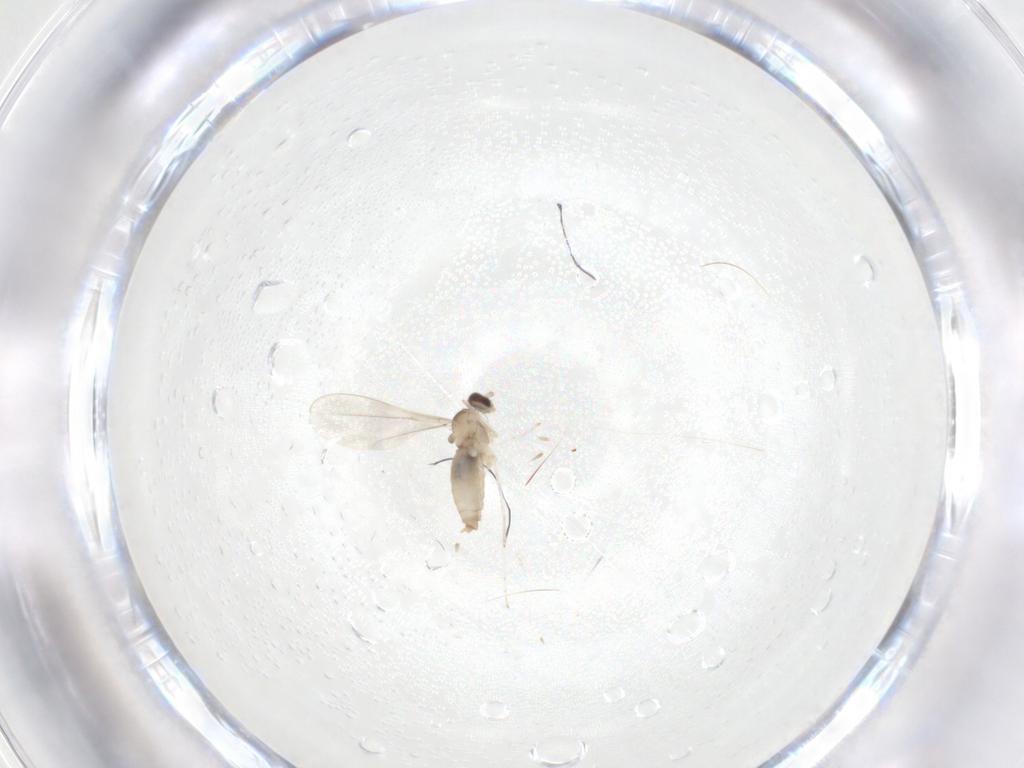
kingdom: Animalia
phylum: Arthropoda
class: Insecta
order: Diptera
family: Cecidomyiidae
